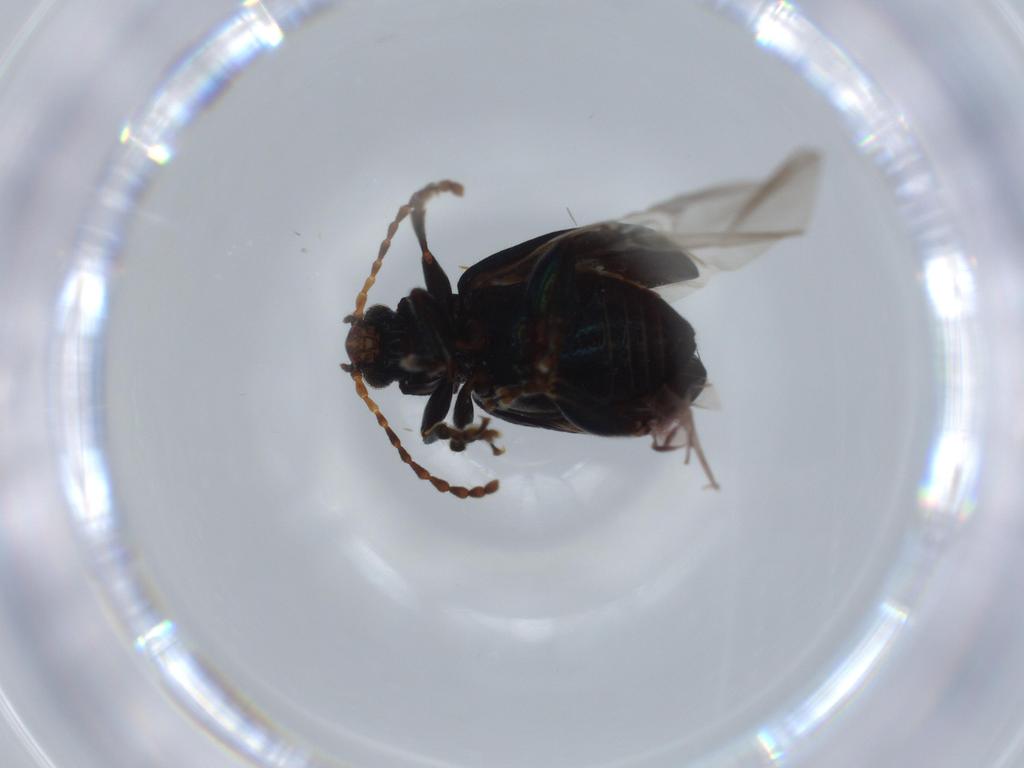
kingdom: Animalia
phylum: Arthropoda
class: Insecta
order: Coleoptera
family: Chrysomelidae
